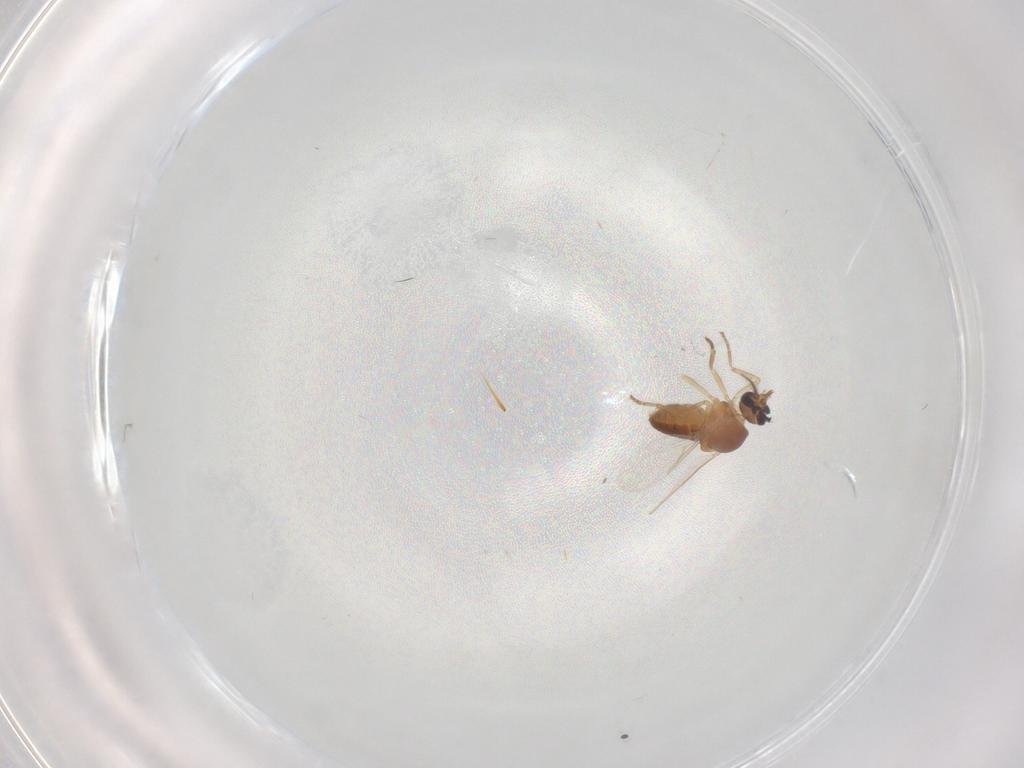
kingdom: Animalia
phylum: Arthropoda
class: Insecta
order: Diptera
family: Ceratopogonidae
